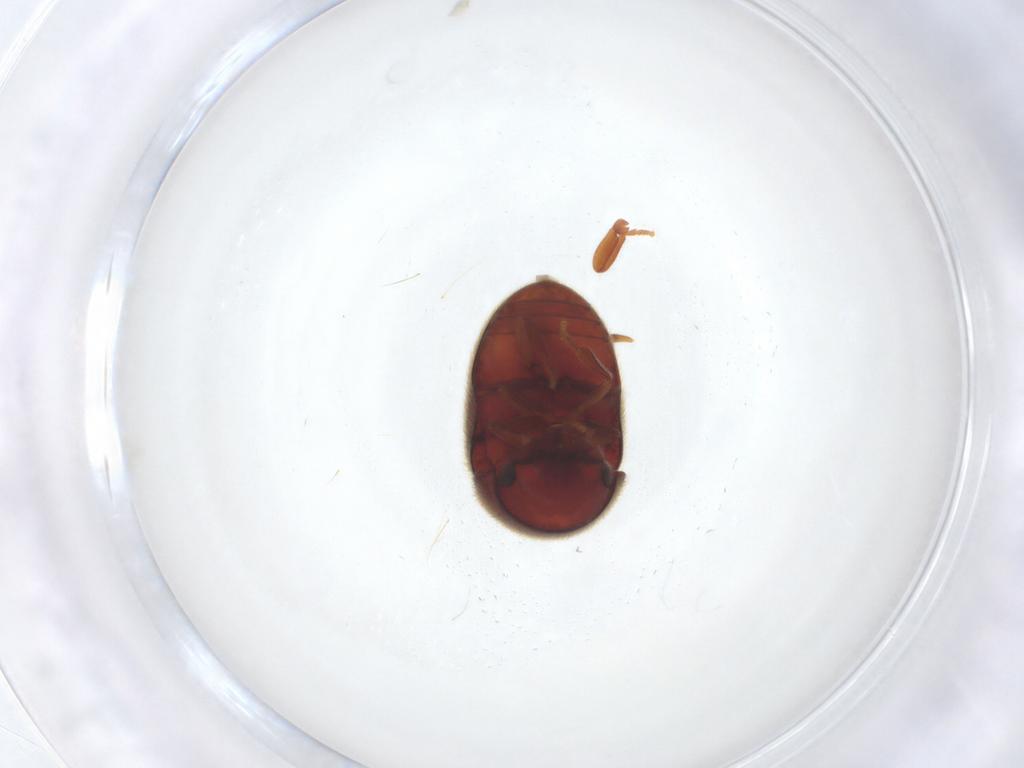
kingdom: Animalia
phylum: Arthropoda
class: Insecta
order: Coleoptera
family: Ptinidae
